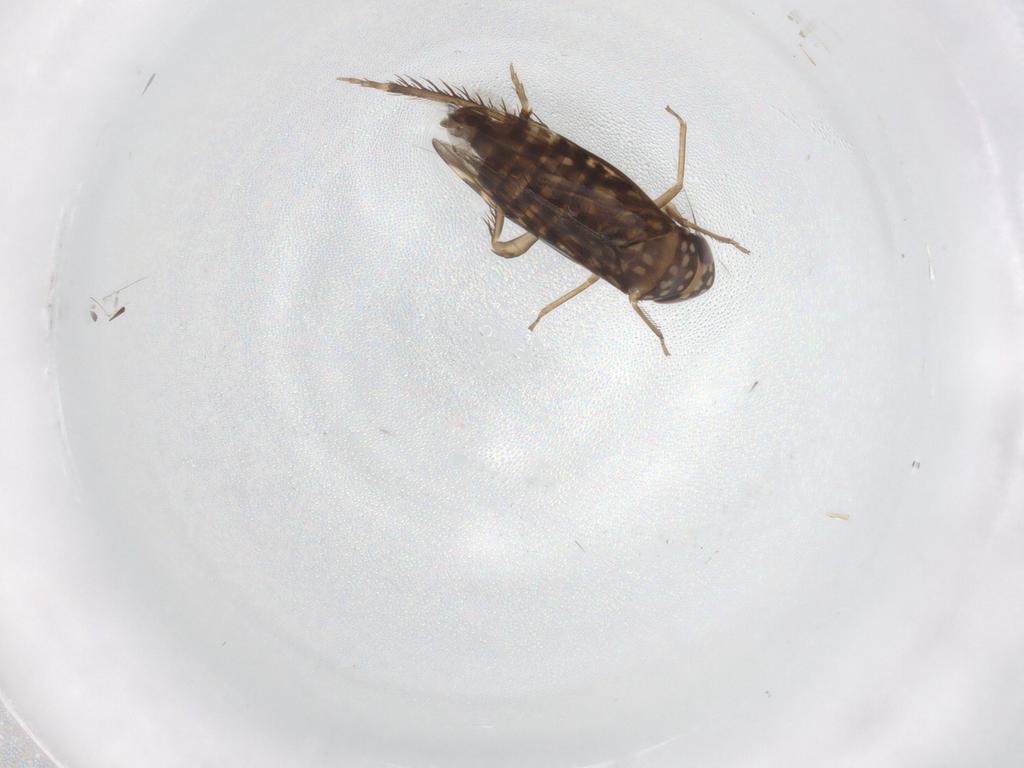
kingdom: Animalia
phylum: Arthropoda
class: Insecta
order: Hemiptera
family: Cicadellidae
